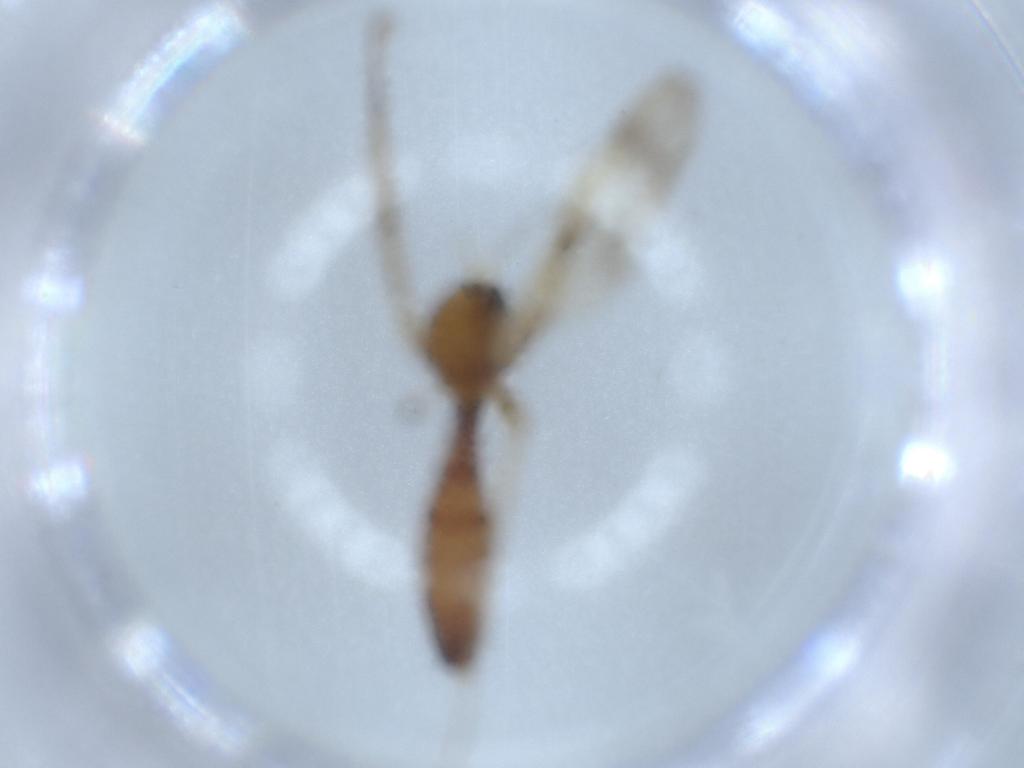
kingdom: Animalia
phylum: Arthropoda
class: Insecta
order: Diptera
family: Mycetophilidae
